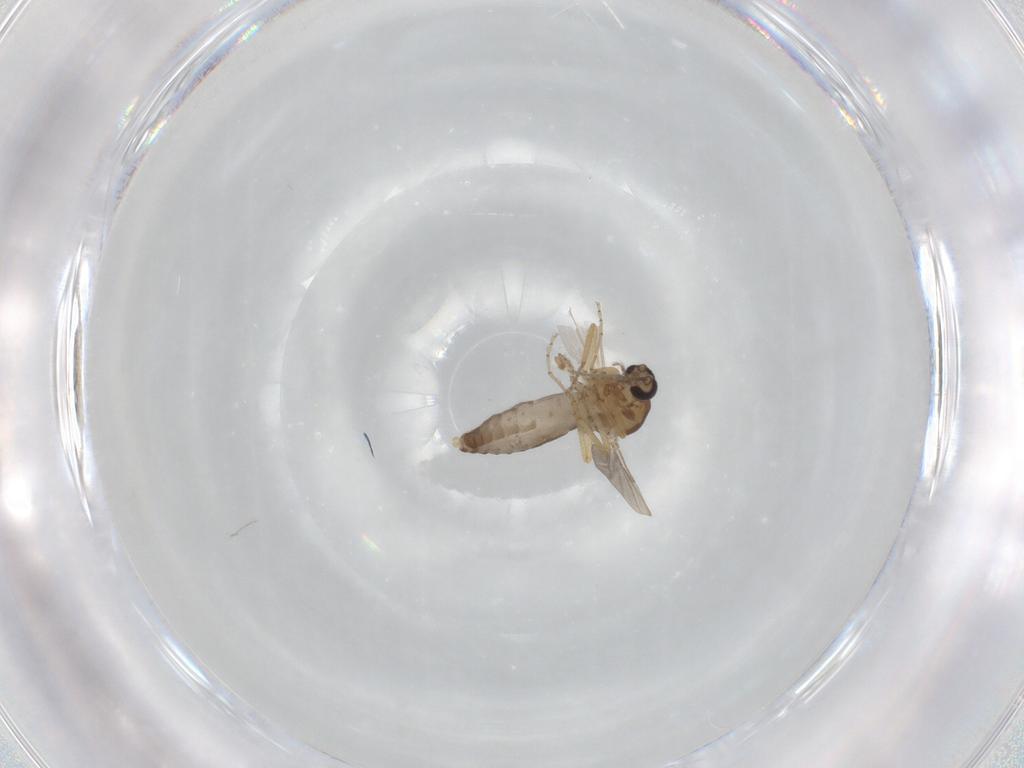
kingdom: Animalia
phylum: Arthropoda
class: Insecta
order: Diptera
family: Ceratopogonidae
